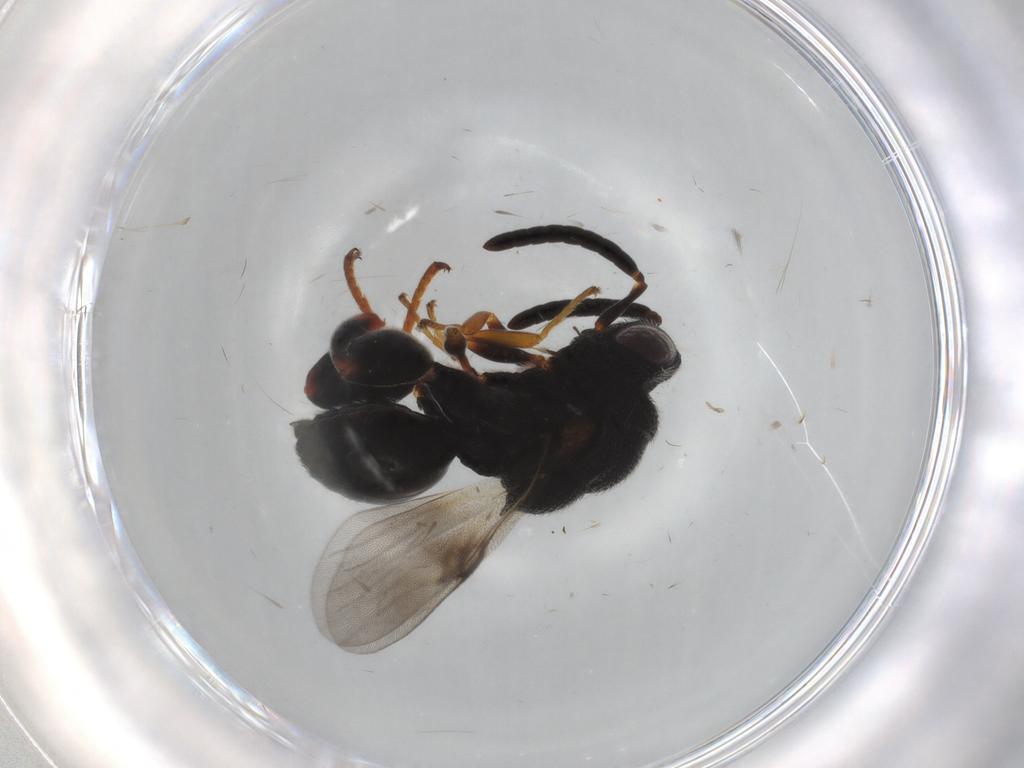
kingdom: Animalia
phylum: Arthropoda
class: Insecta
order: Hymenoptera
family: Chalcididae
